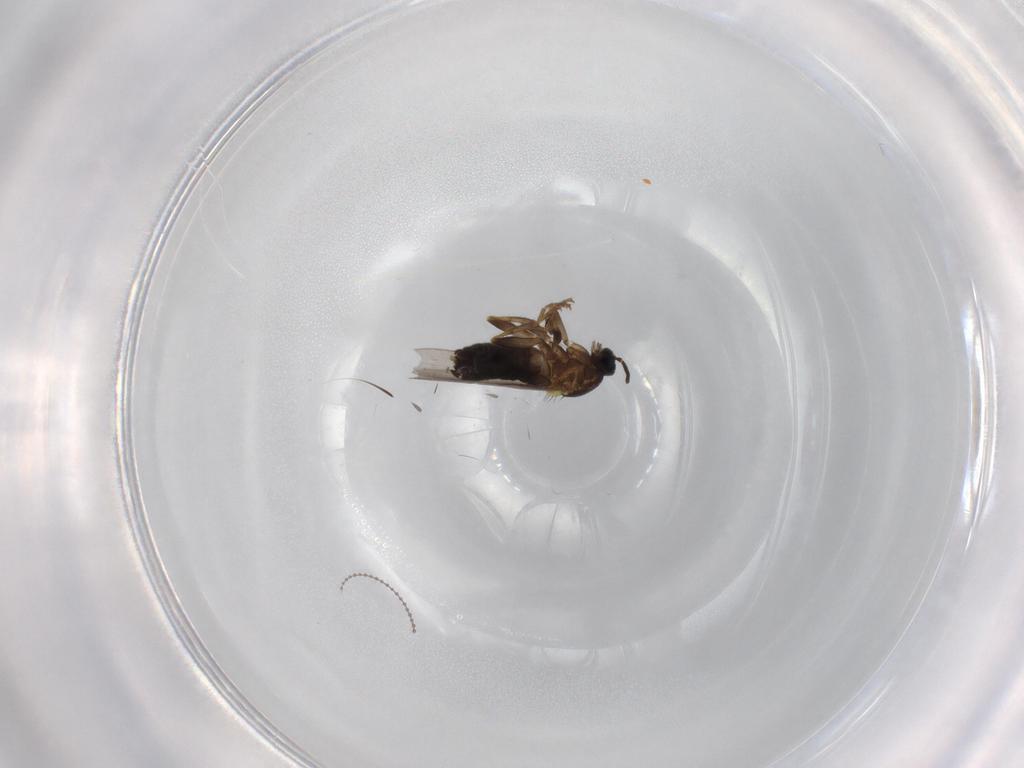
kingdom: Animalia
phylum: Arthropoda
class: Insecta
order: Diptera
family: Scatopsidae
